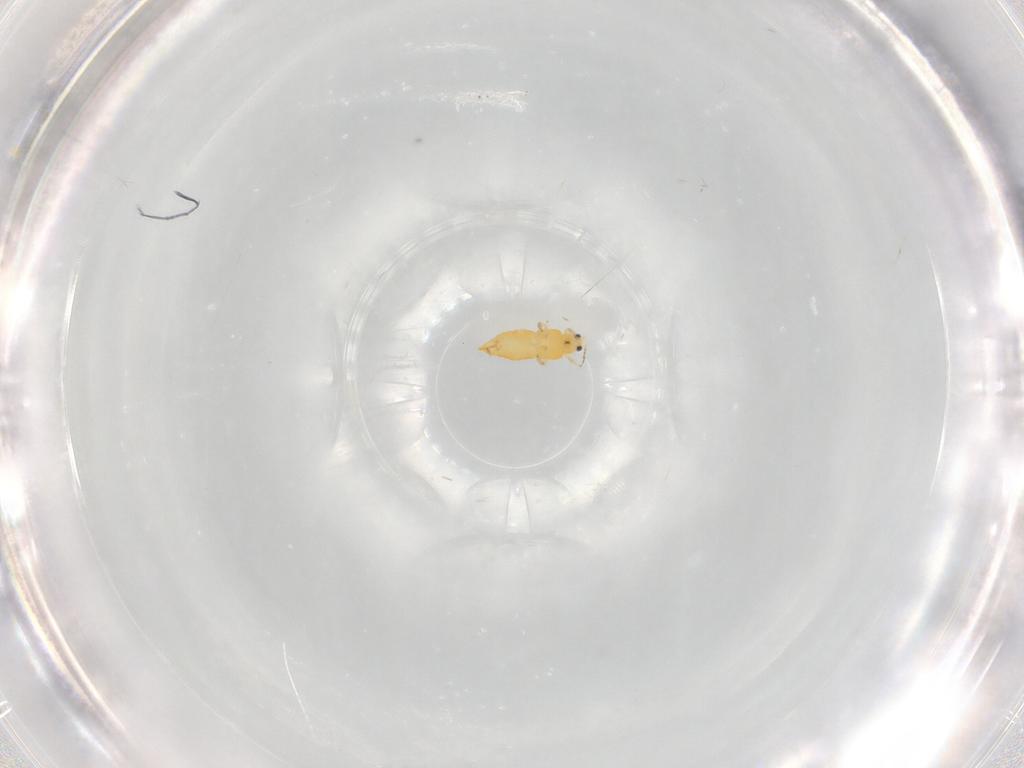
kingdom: Animalia
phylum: Arthropoda
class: Insecta
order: Thysanoptera
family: Thripidae
